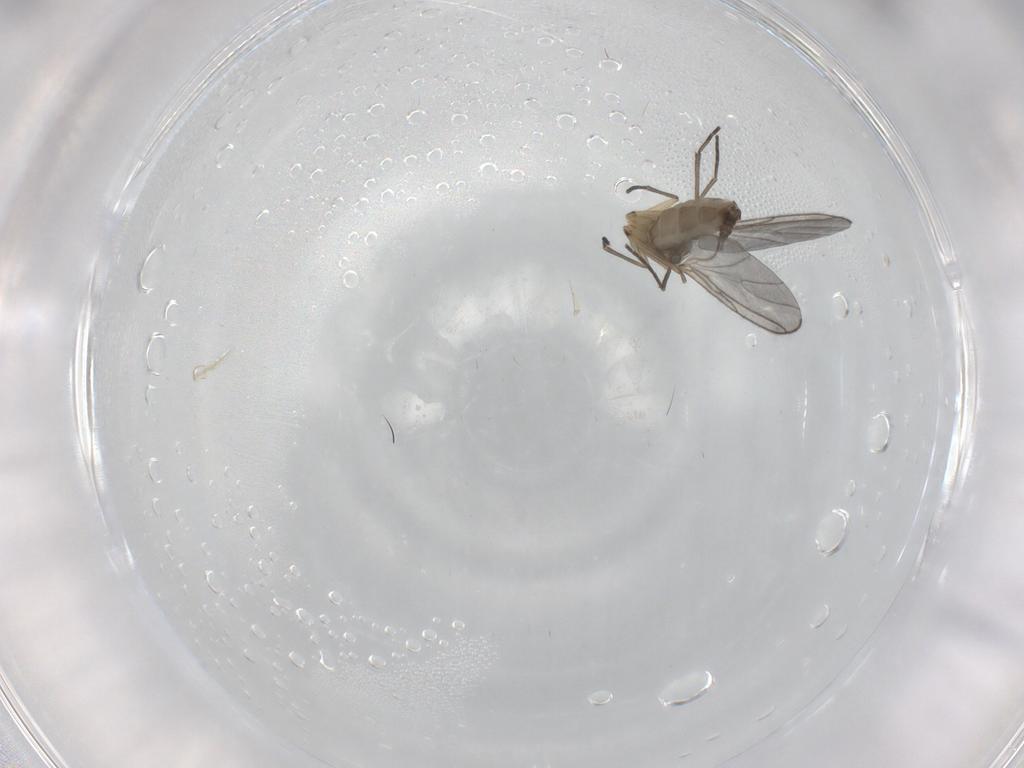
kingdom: Animalia
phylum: Arthropoda
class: Insecta
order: Diptera
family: Sciaridae
